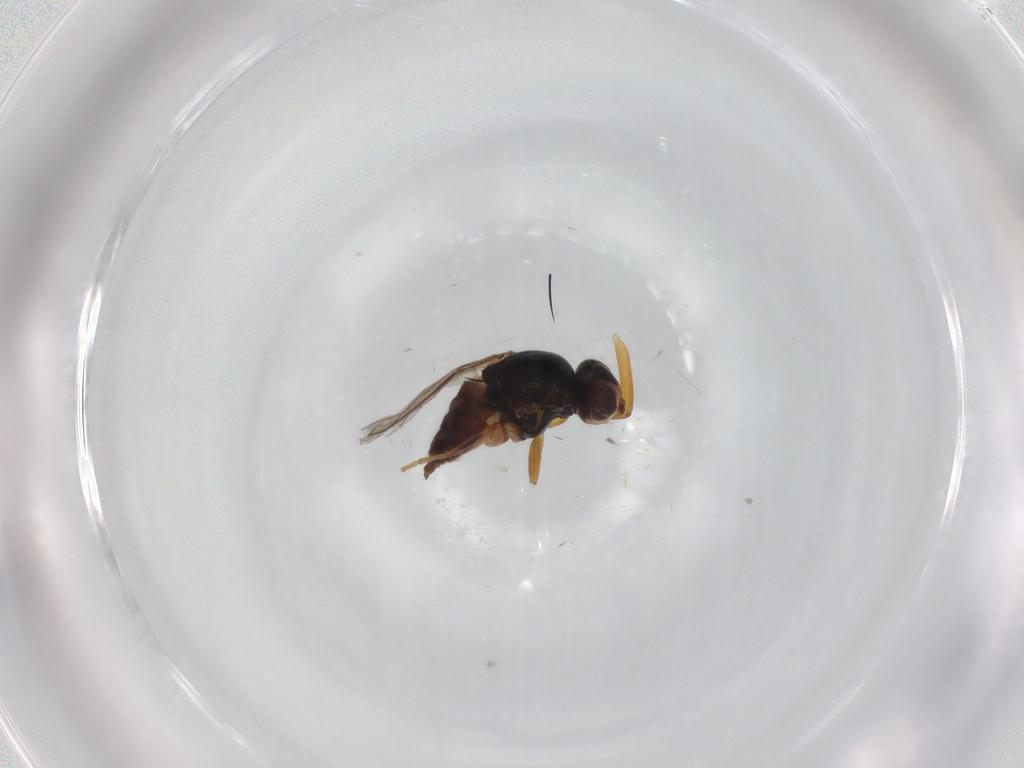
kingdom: Animalia
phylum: Arthropoda
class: Insecta
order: Diptera
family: Chloropidae
